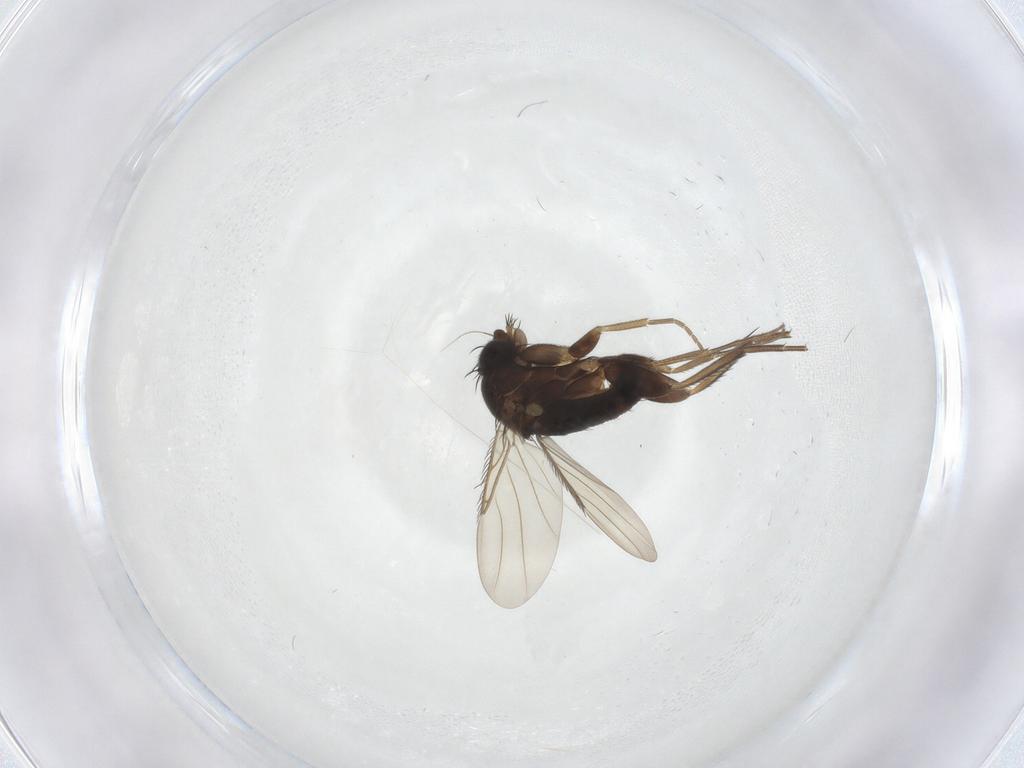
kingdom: Animalia
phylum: Arthropoda
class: Insecta
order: Diptera
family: Phoridae
